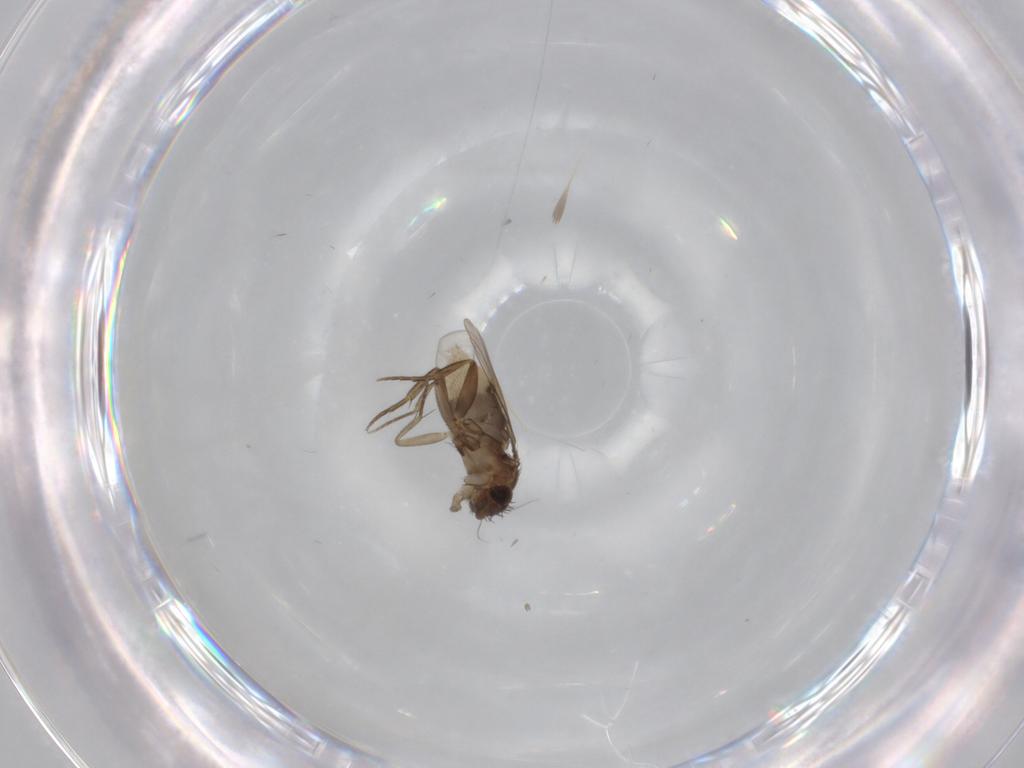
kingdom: Animalia
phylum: Arthropoda
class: Insecta
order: Diptera
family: Phoridae
